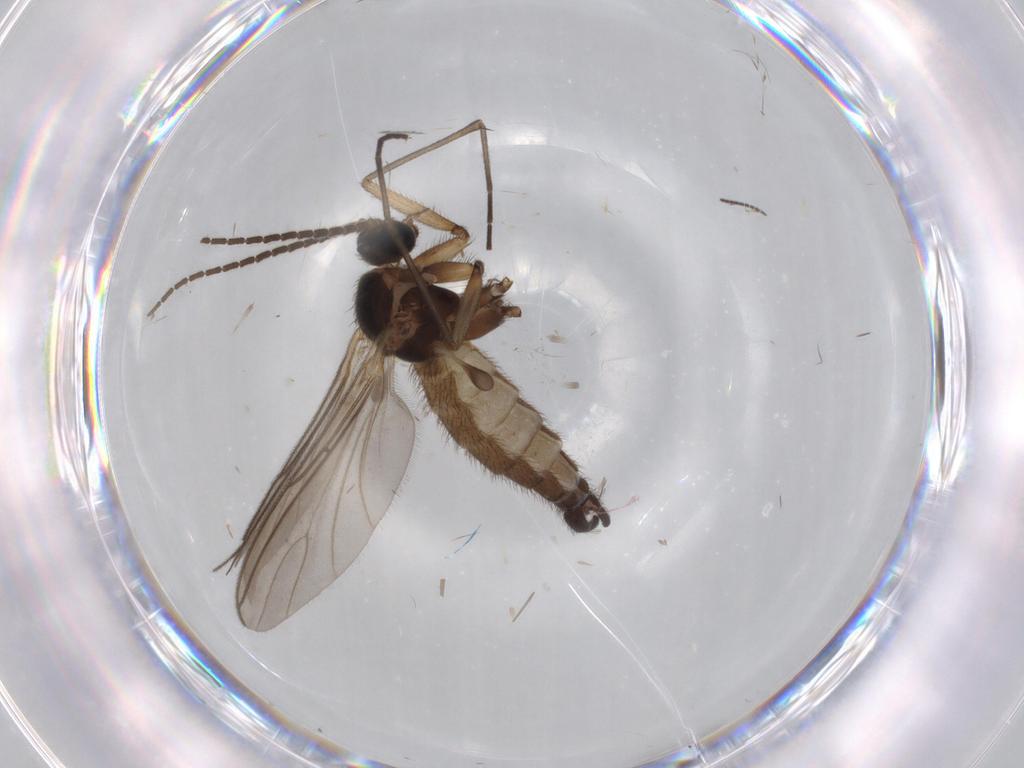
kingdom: Animalia
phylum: Arthropoda
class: Insecta
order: Diptera
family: Sciaridae
